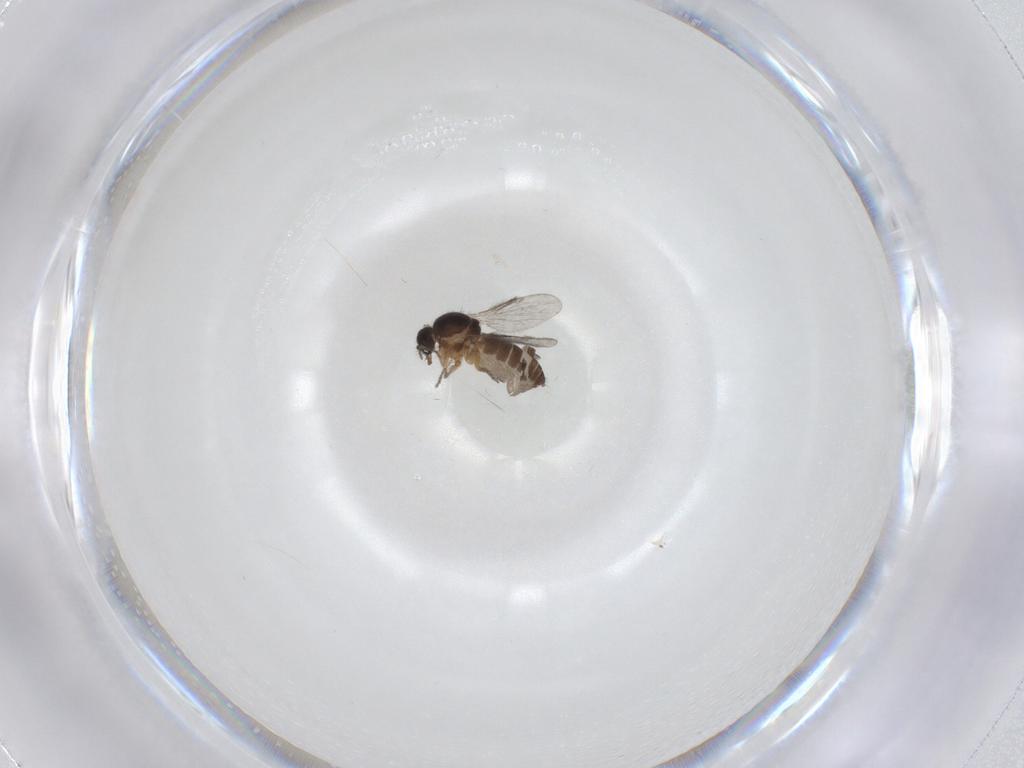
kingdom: Animalia
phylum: Arthropoda
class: Insecta
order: Diptera
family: Ceratopogonidae
